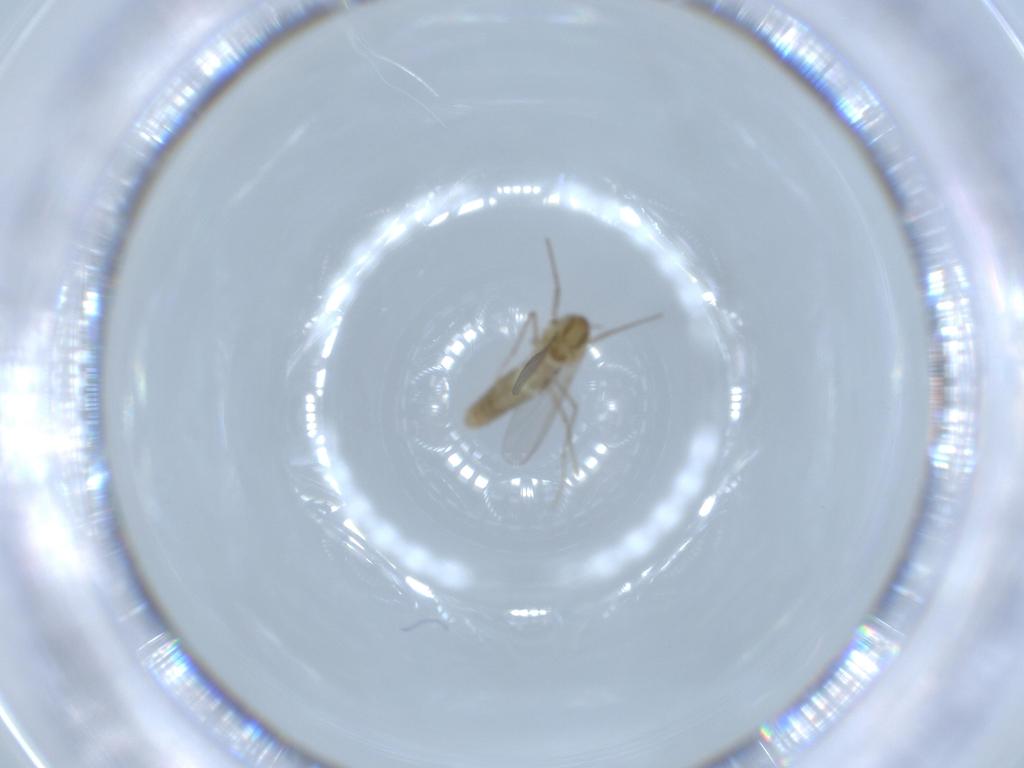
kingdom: Animalia
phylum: Arthropoda
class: Insecta
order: Diptera
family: Chironomidae
